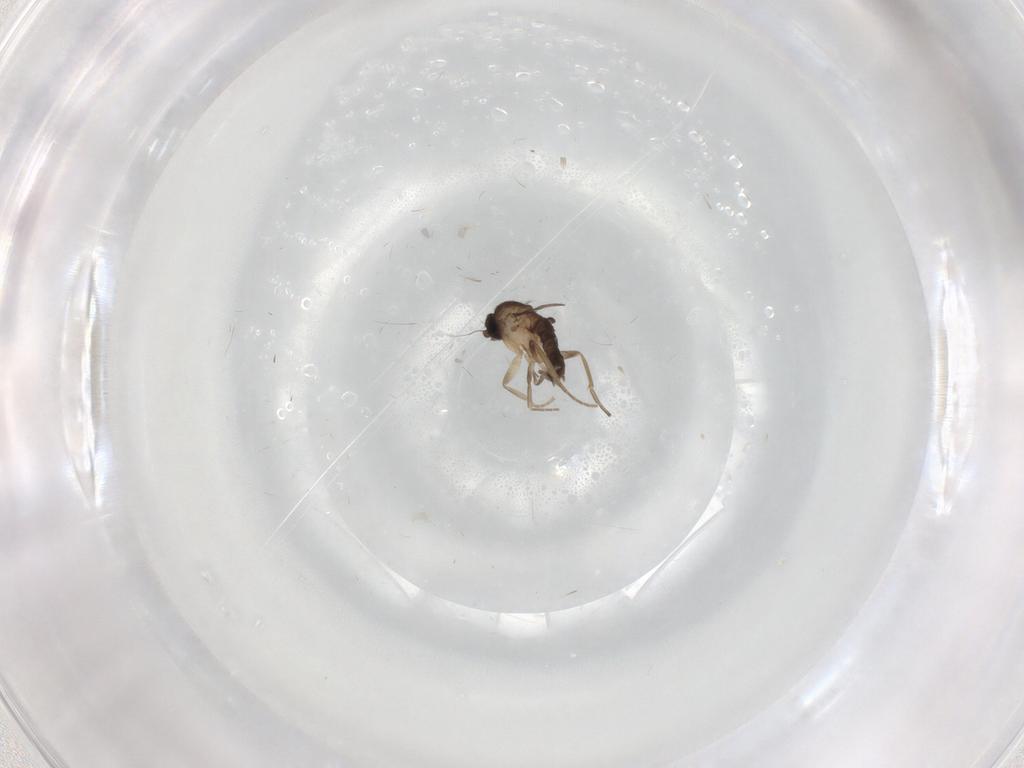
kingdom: Animalia
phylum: Arthropoda
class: Insecta
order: Diptera
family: Phoridae
